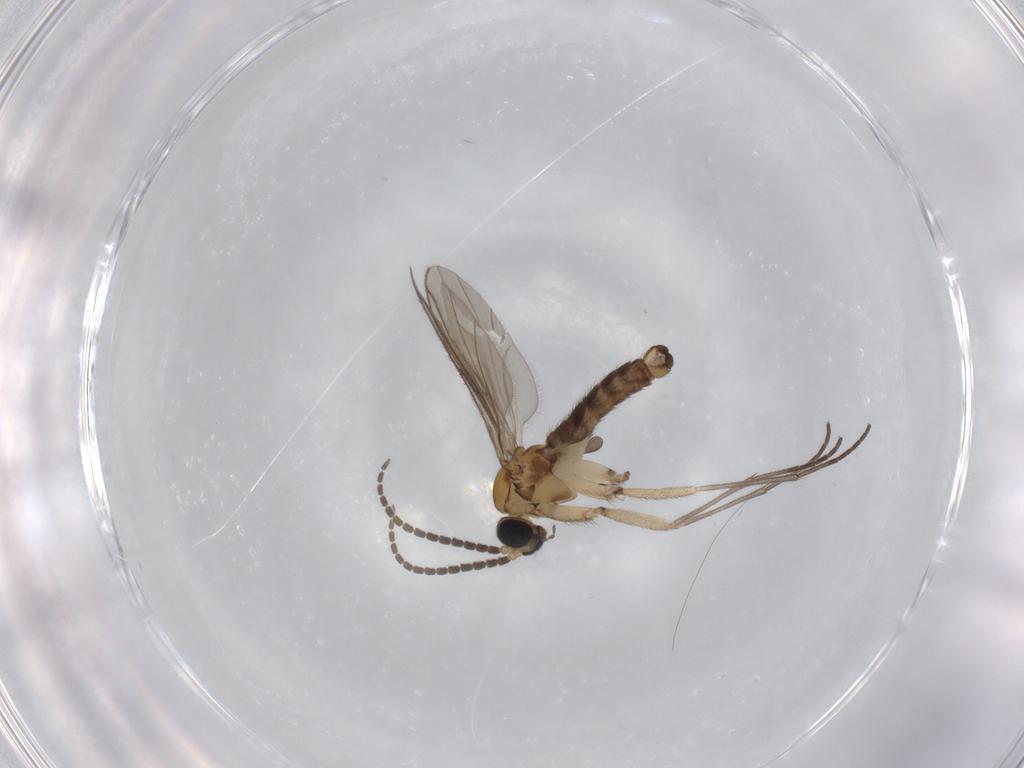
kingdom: Animalia
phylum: Arthropoda
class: Insecta
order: Diptera
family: Sciaridae
